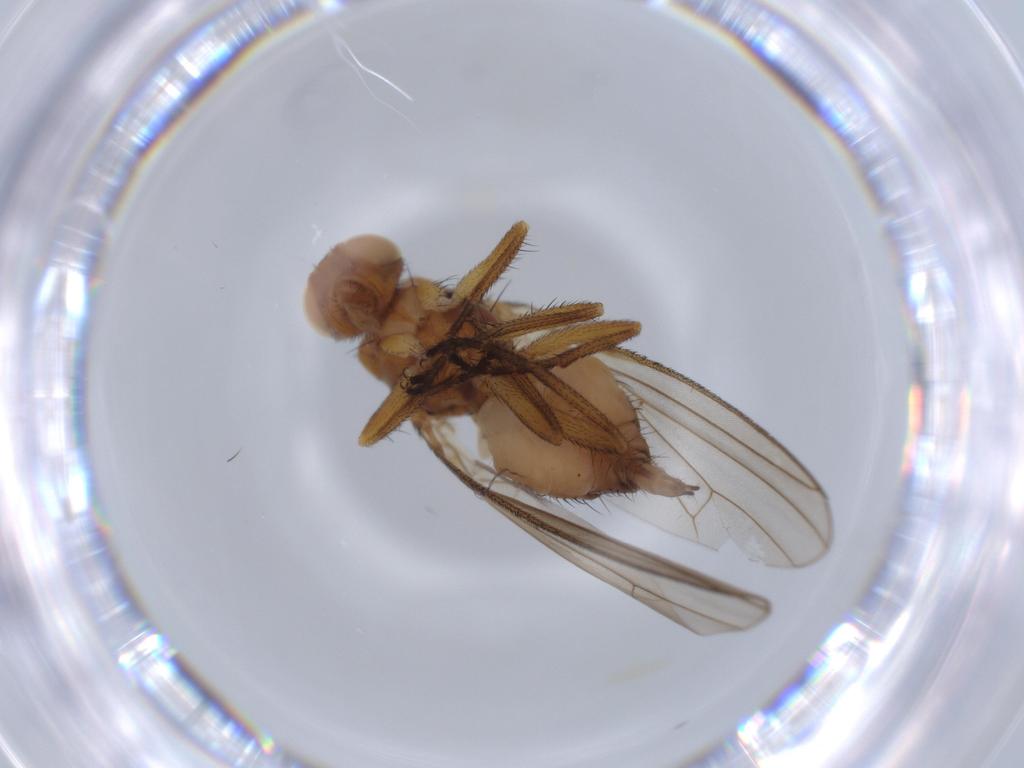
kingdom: Animalia
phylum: Arthropoda
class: Insecta
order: Diptera
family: Heleomyzidae
